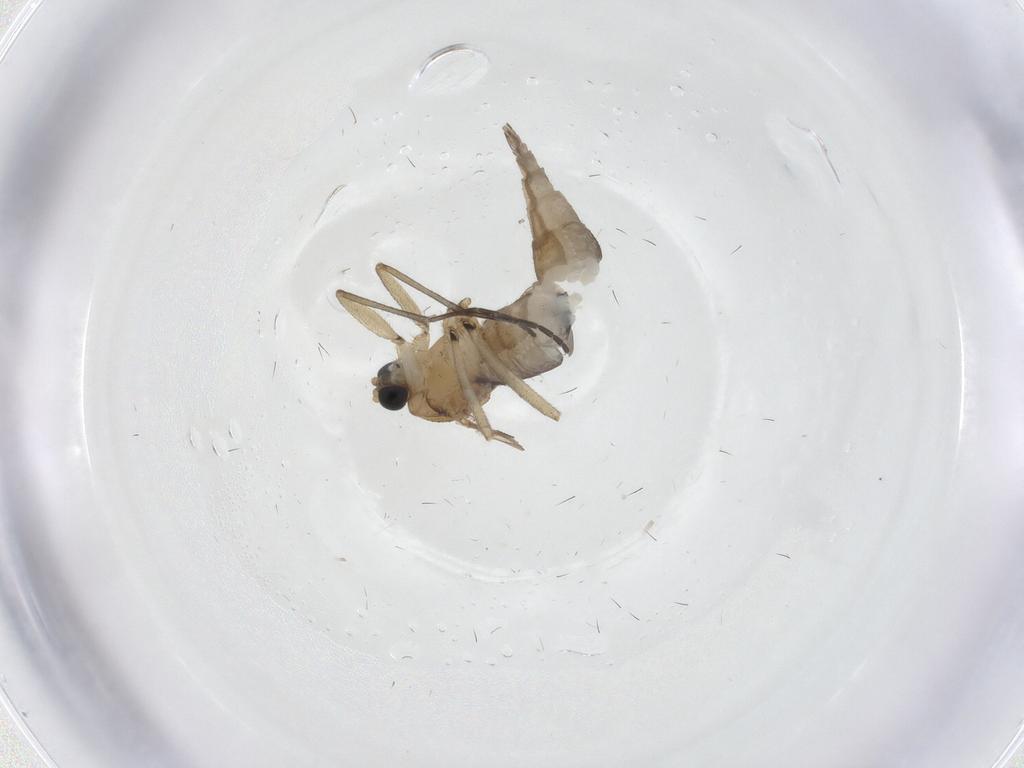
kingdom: Animalia
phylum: Arthropoda
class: Insecta
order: Diptera
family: Sciaridae
